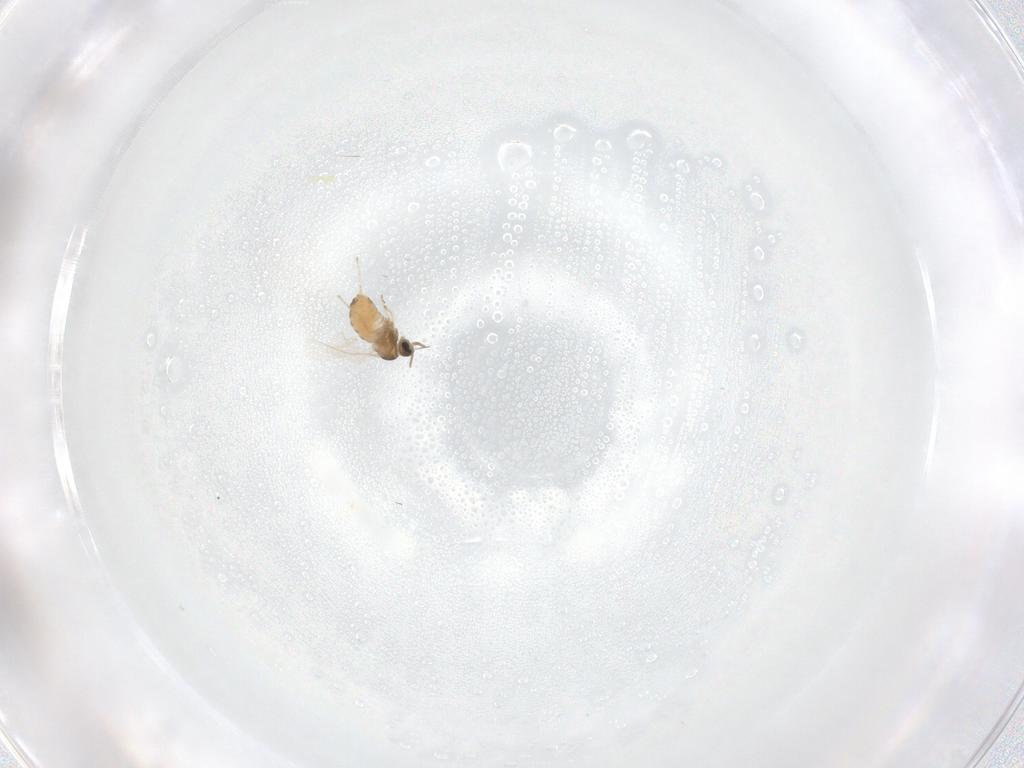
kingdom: Animalia
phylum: Arthropoda
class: Insecta
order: Diptera
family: Cecidomyiidae
